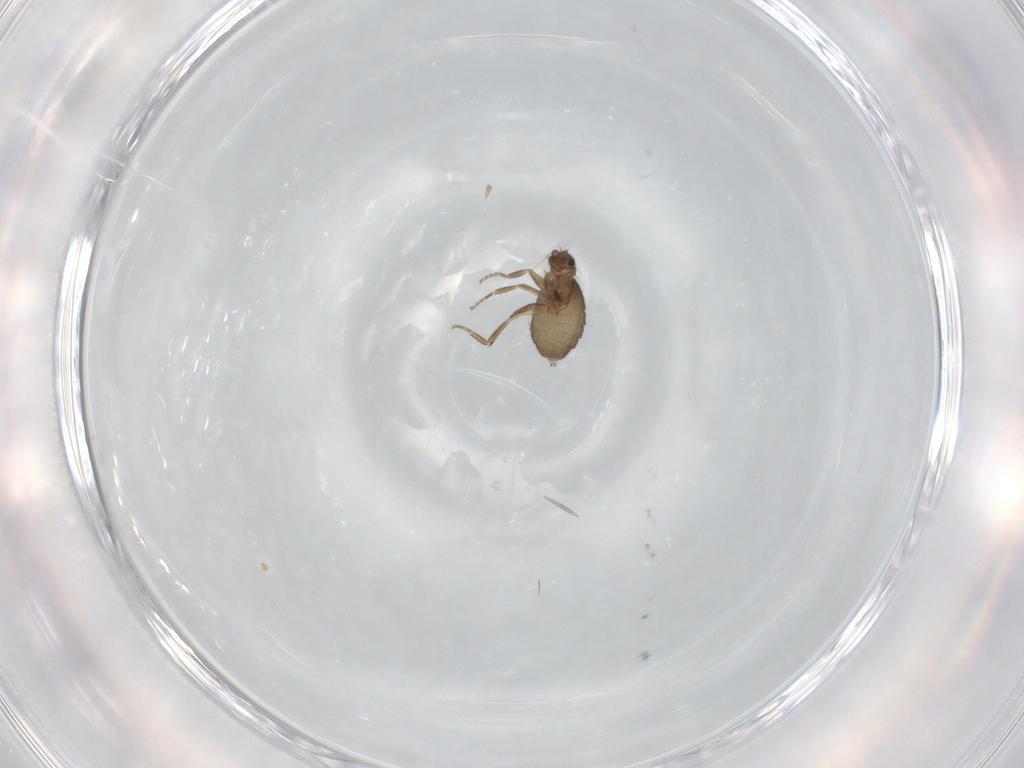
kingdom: Animalia
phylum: Arthropoda
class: Insecta
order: Diptera
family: Phoridae
